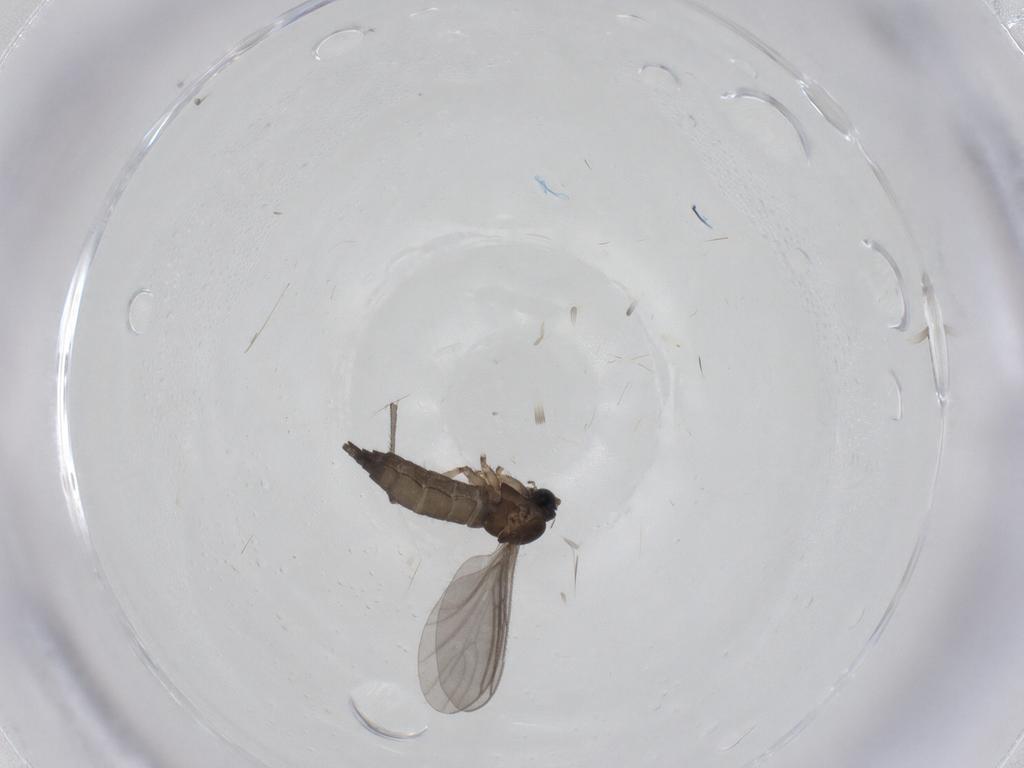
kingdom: Animalia
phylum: Arthropoda
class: Insecta
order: Diptera
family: Sciaridae
